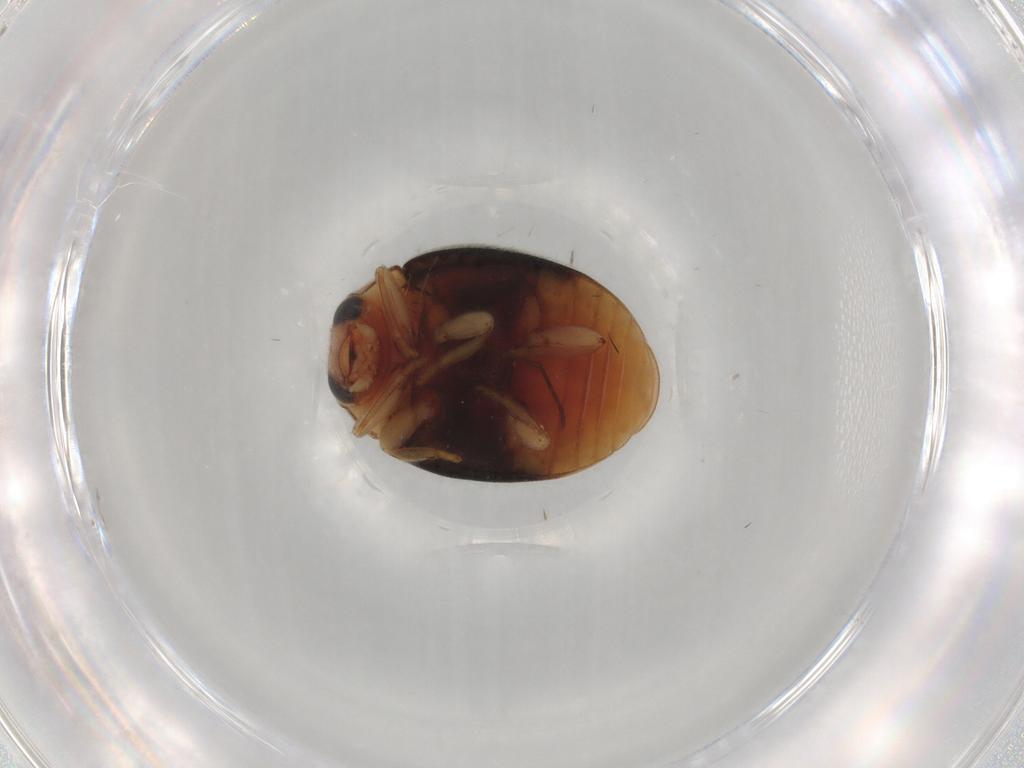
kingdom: Animalia
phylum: Arthropoda
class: Insecta
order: Coleoptera
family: Coccinellidae
